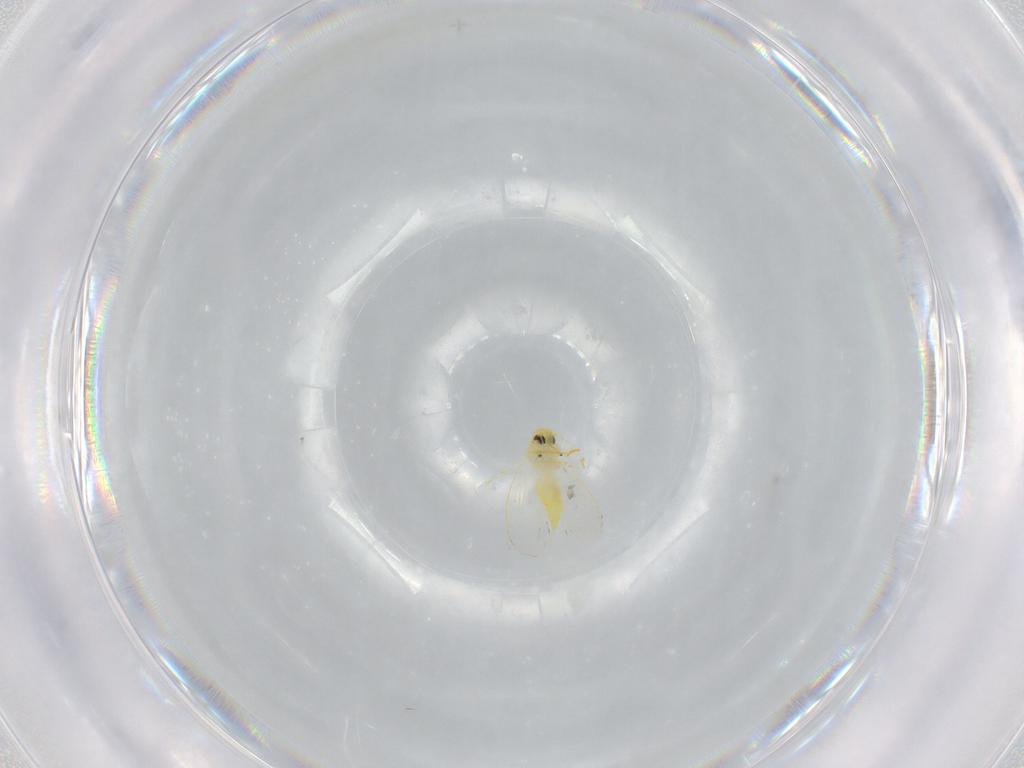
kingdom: Animalia
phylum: Arthropoda
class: Insecta
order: Hemiptera
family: Aleyrodidae
